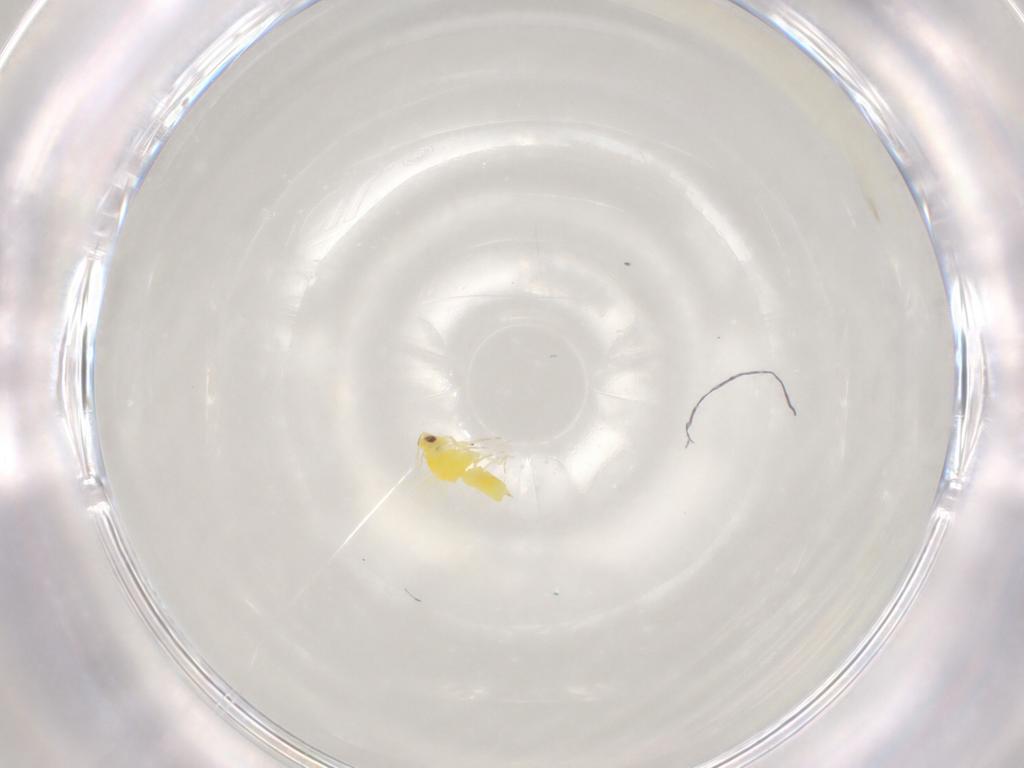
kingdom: Animalia
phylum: Arthropoda
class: Insecta
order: Hemiptera
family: Aleyrodidae
